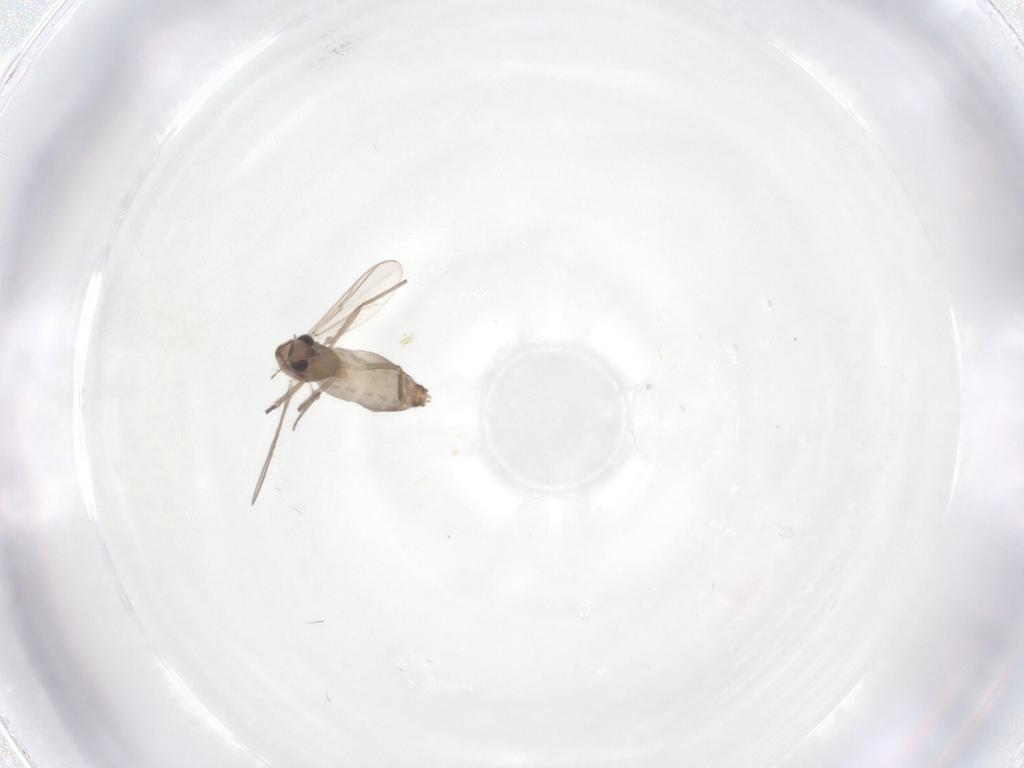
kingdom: Animalia
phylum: Arthropoda
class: Insecta
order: Diptera
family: Chironomidae
